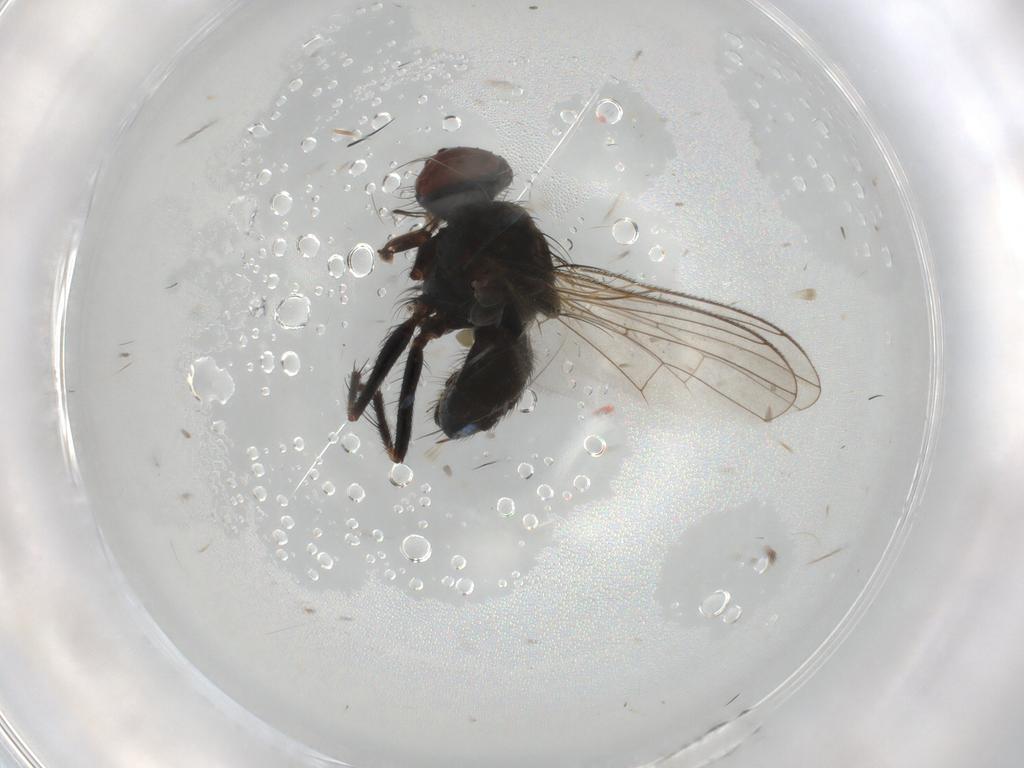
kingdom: Animalia
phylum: Arthropoda
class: Insecta
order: Diptera
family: Muscidae
